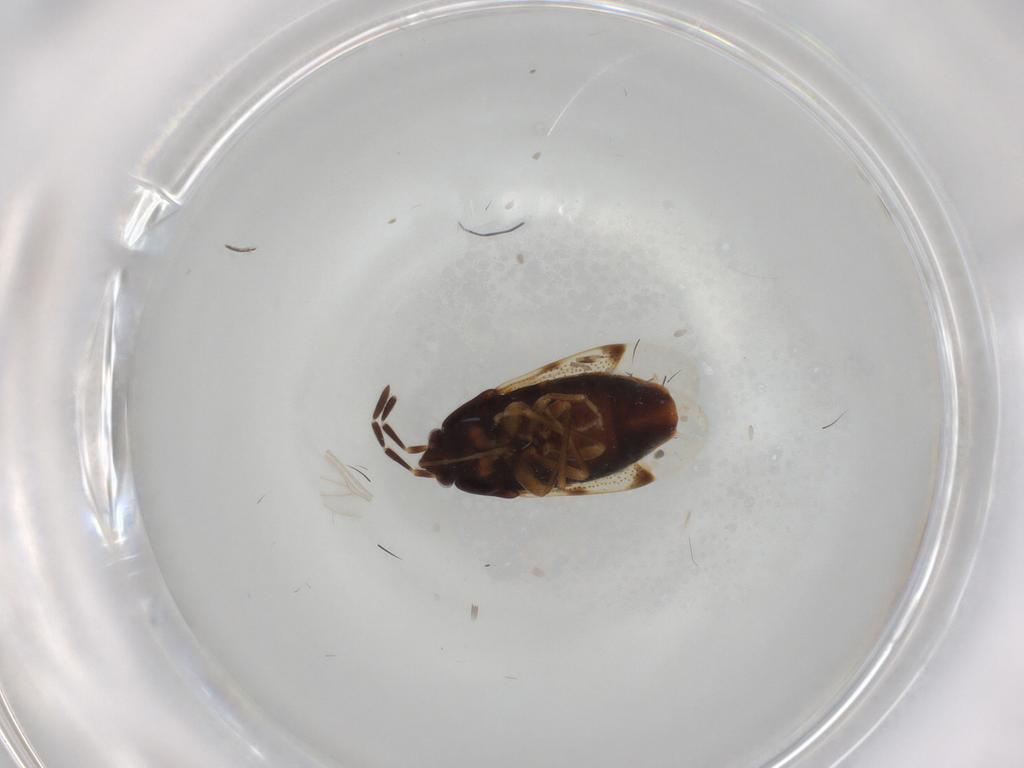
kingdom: Animalia
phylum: Arthropoda
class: Insecta
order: Hemiptera
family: Rhyparochromidae
